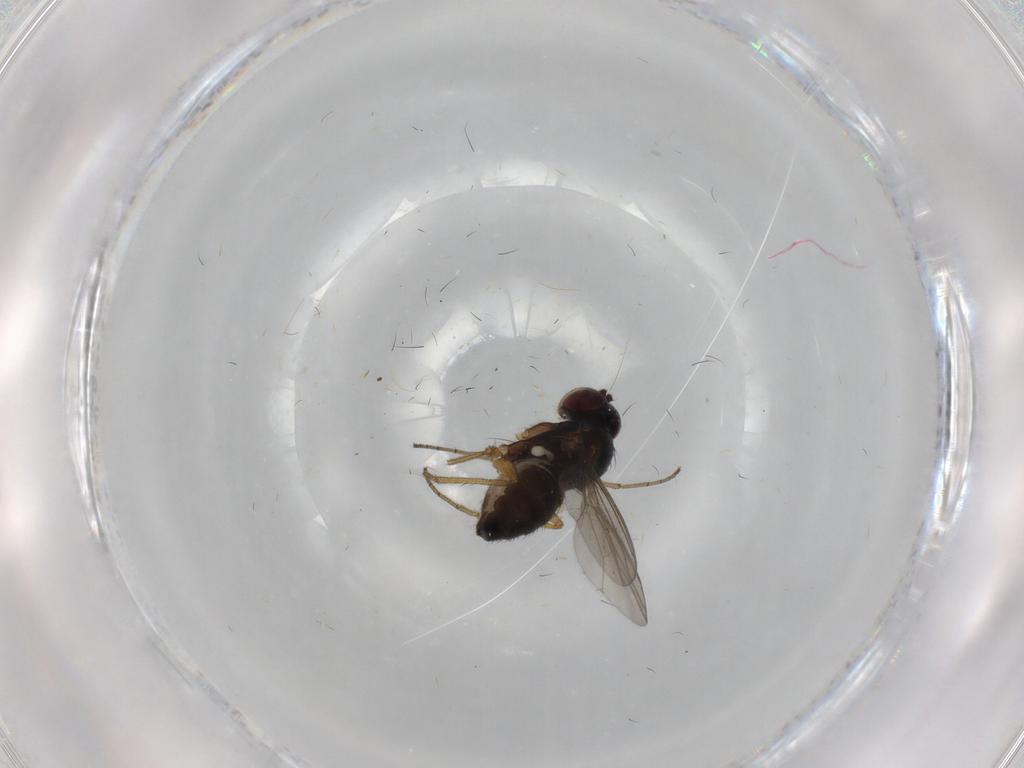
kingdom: Animalia
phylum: Arthropoda
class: Insecta
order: Diptera
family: Dolichopodidae
